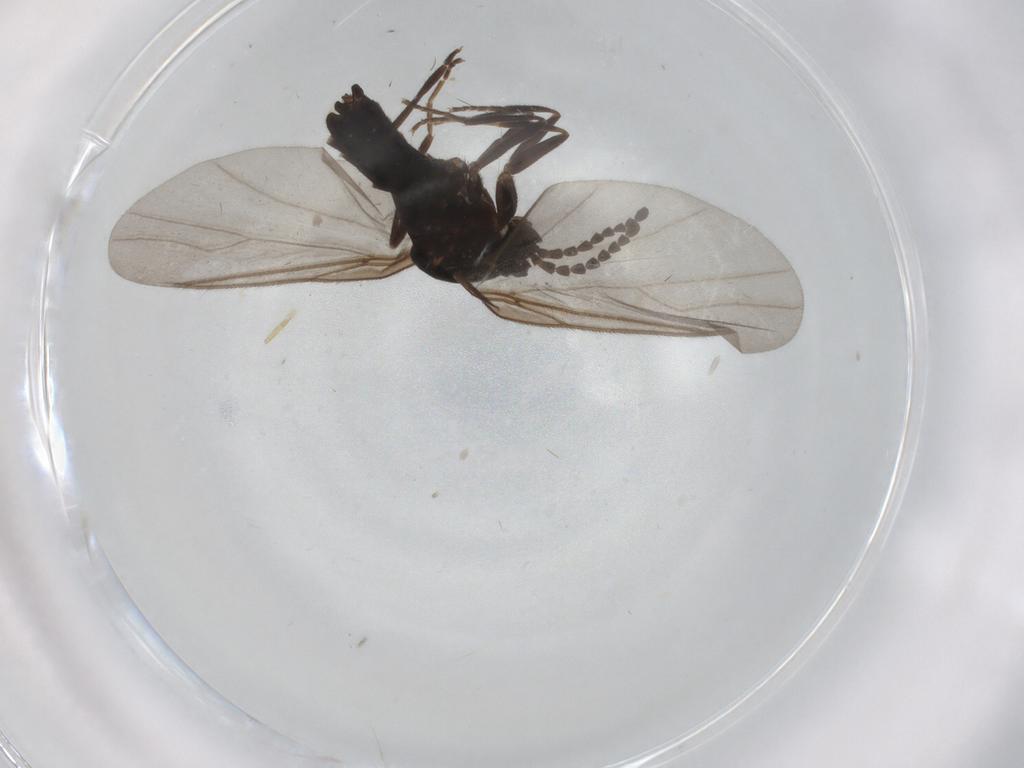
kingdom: Animalia
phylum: Arthropoda
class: Insecta
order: Diptera
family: Scatopsidae
